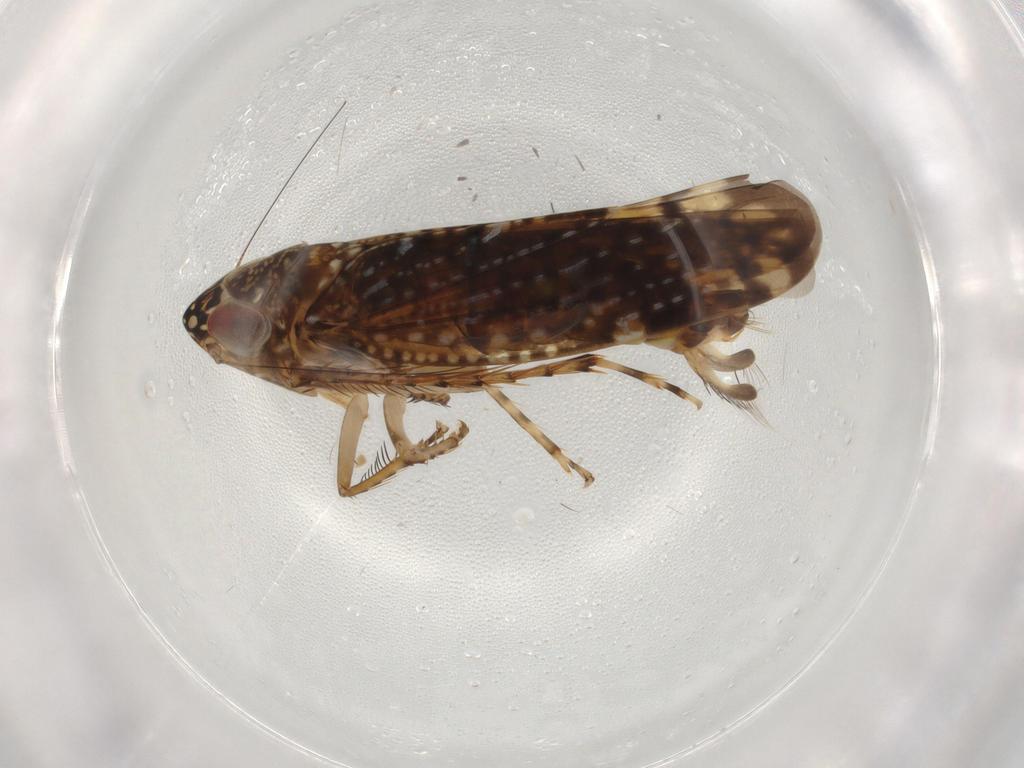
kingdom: Animalia
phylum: Arthropoda
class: Insecta
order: Hemiptera
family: Cicadellidae
